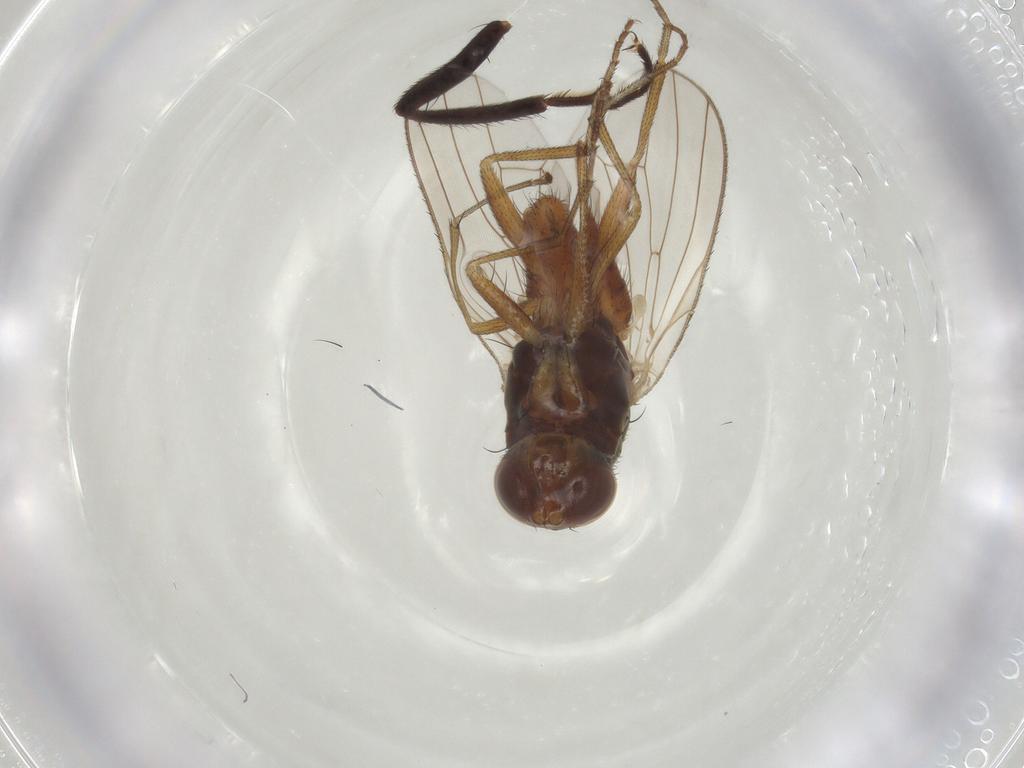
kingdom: Animalia
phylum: Arthropoda
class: Insecta
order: Diptera
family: Heleomyzidae
